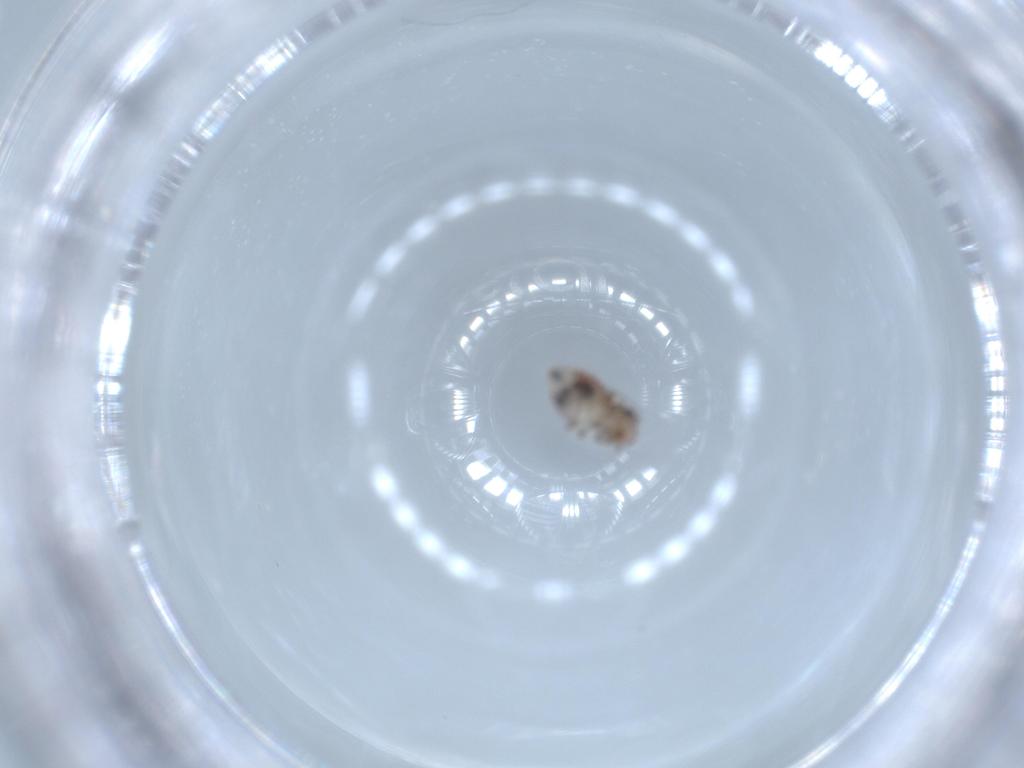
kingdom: Animalia
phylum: Arthropoda
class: Insecta
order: Psocodea
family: Amphientomidae
